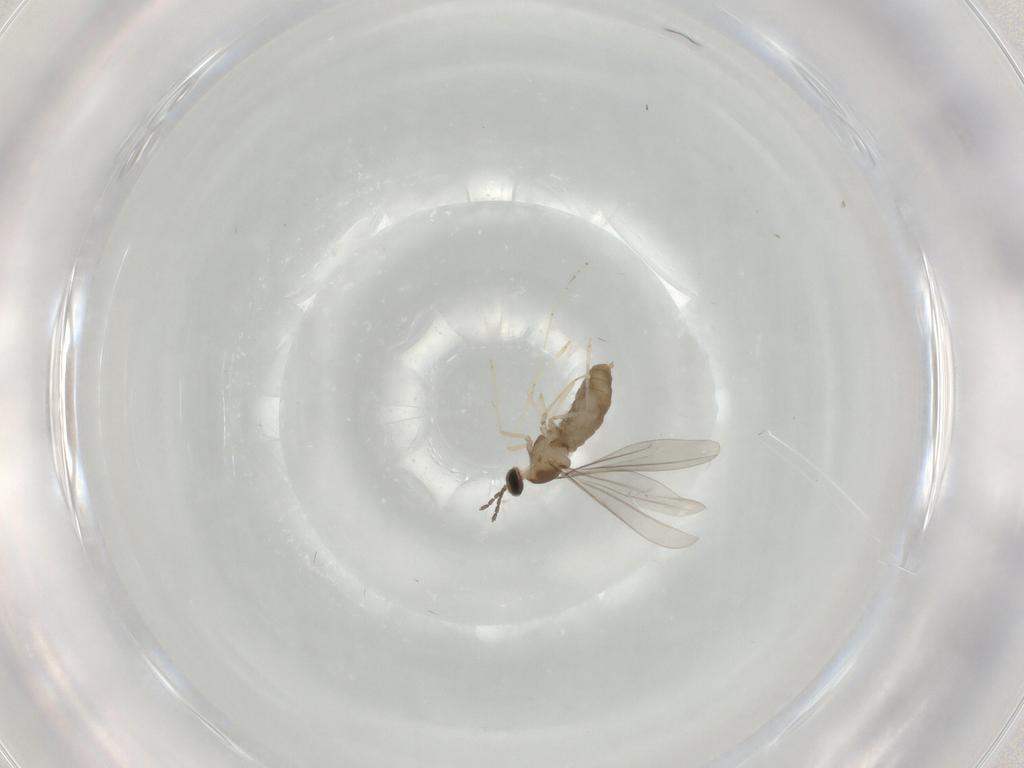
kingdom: Animalia
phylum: Arthropoda
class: Insecta
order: Diptera
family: Cecidomyiidae
